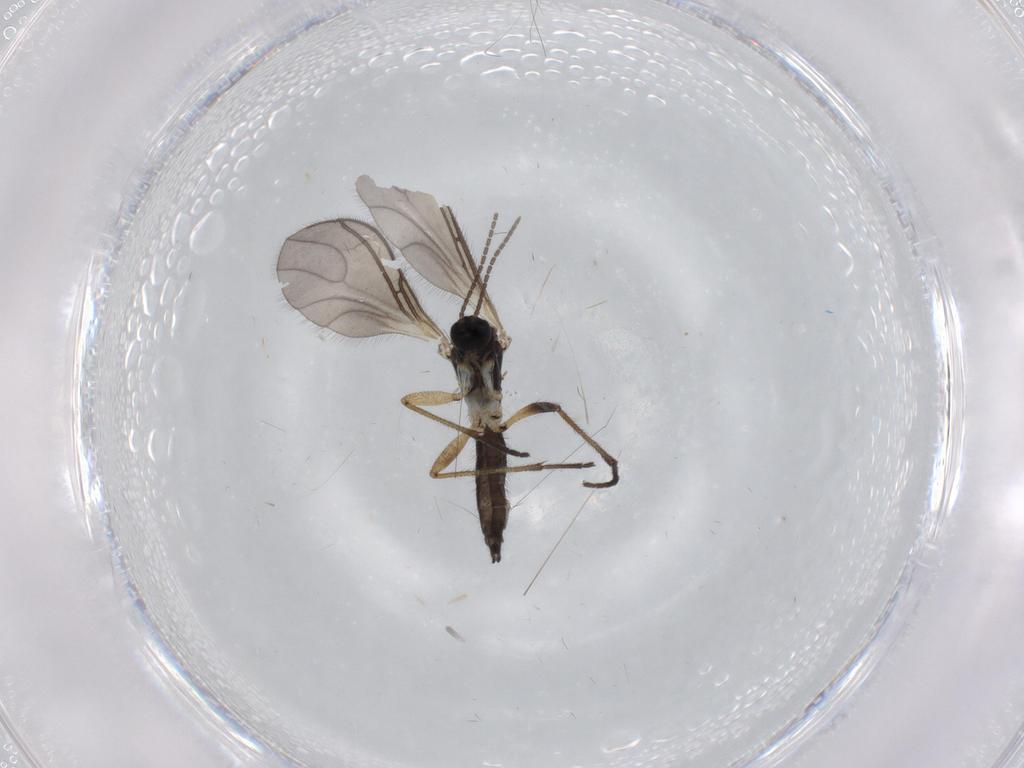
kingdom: Animalia
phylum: Arthropoda
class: Insecta
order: Diptera
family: Sciaridae
